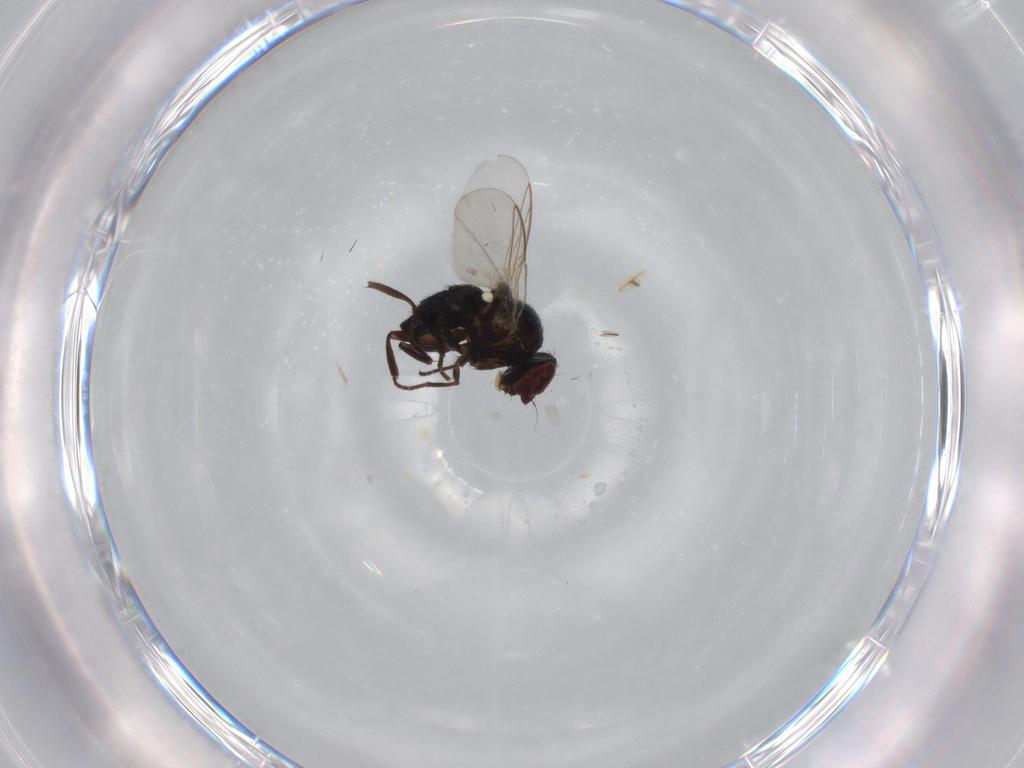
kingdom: Animalia
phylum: Arthropoda
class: Insecta
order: Diptera
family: Agromyzidae
